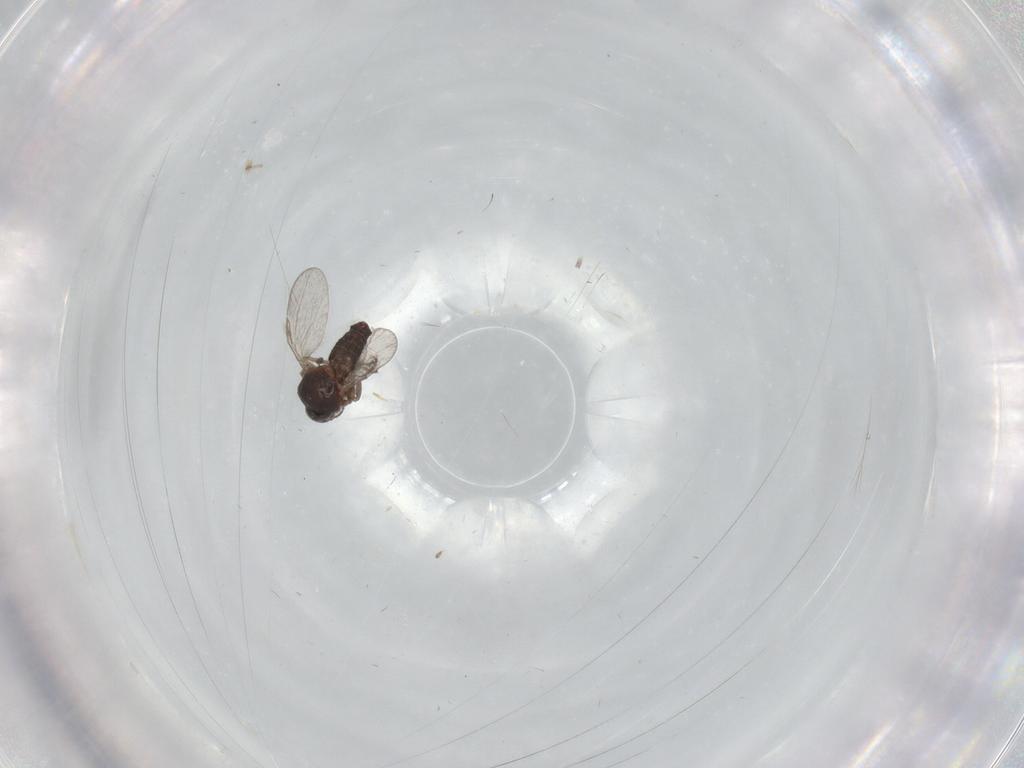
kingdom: Animalia
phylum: Arthropoda
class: Insecta
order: Diptera
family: Ceratopogonidae
